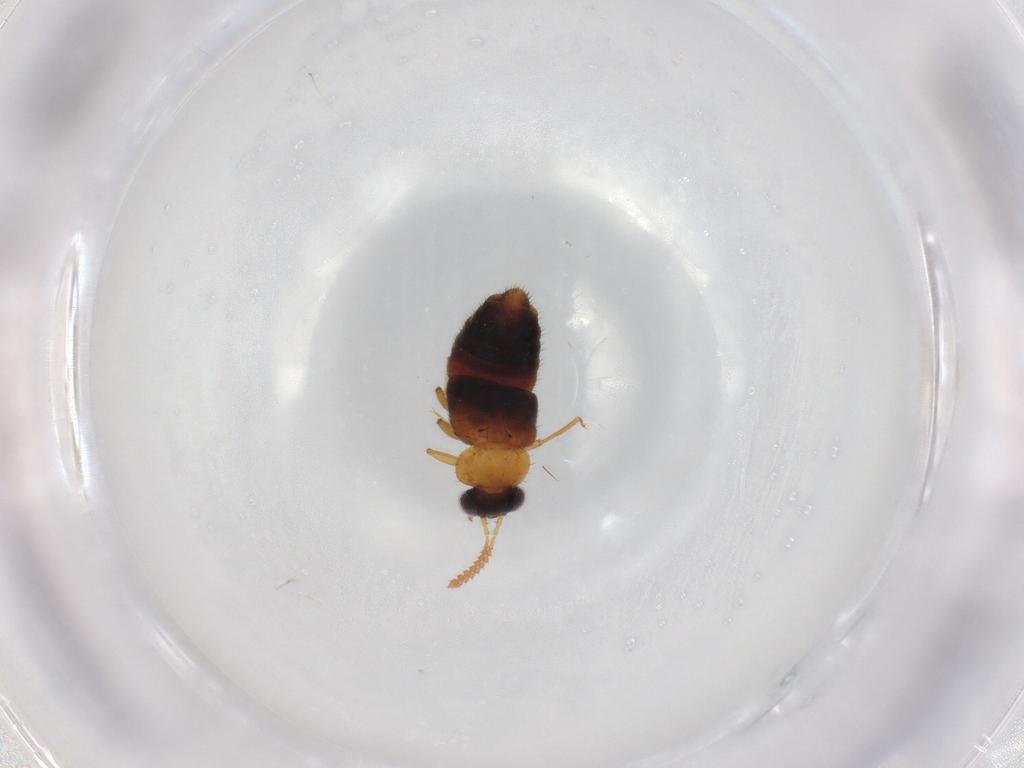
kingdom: Animalia
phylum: Arthropoda
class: Insecta
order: Coleoptera
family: Staphylinidae
